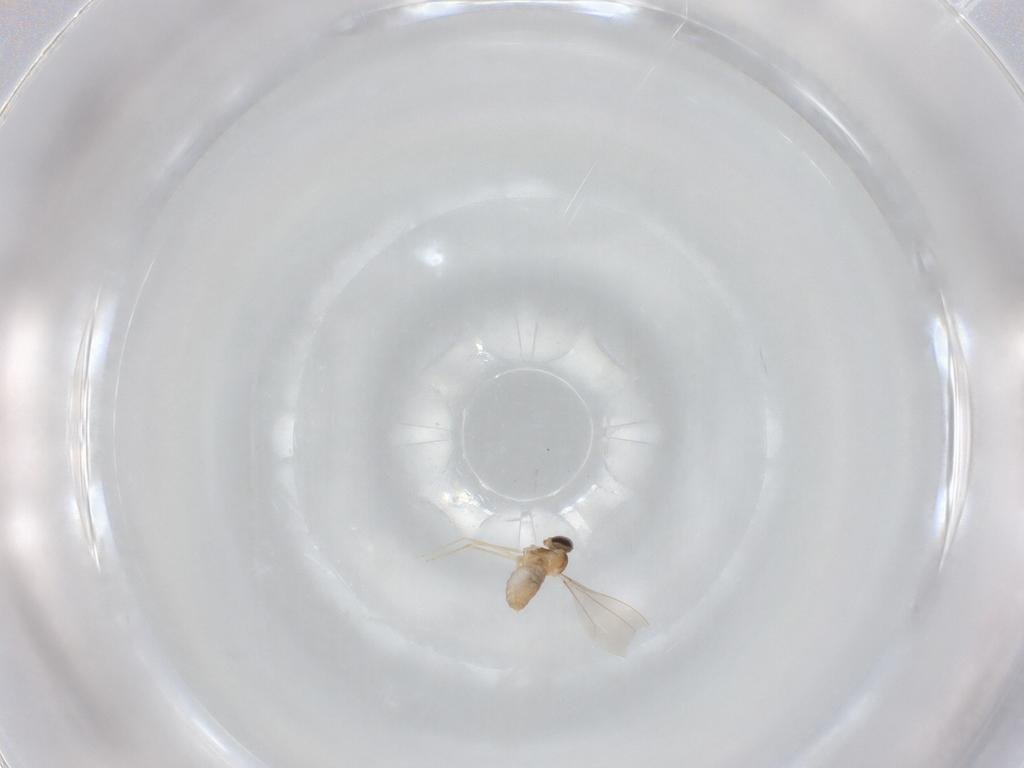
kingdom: Animalia
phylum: Arthropoda
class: Insecta
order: Diptera
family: Cecidomyiidae
